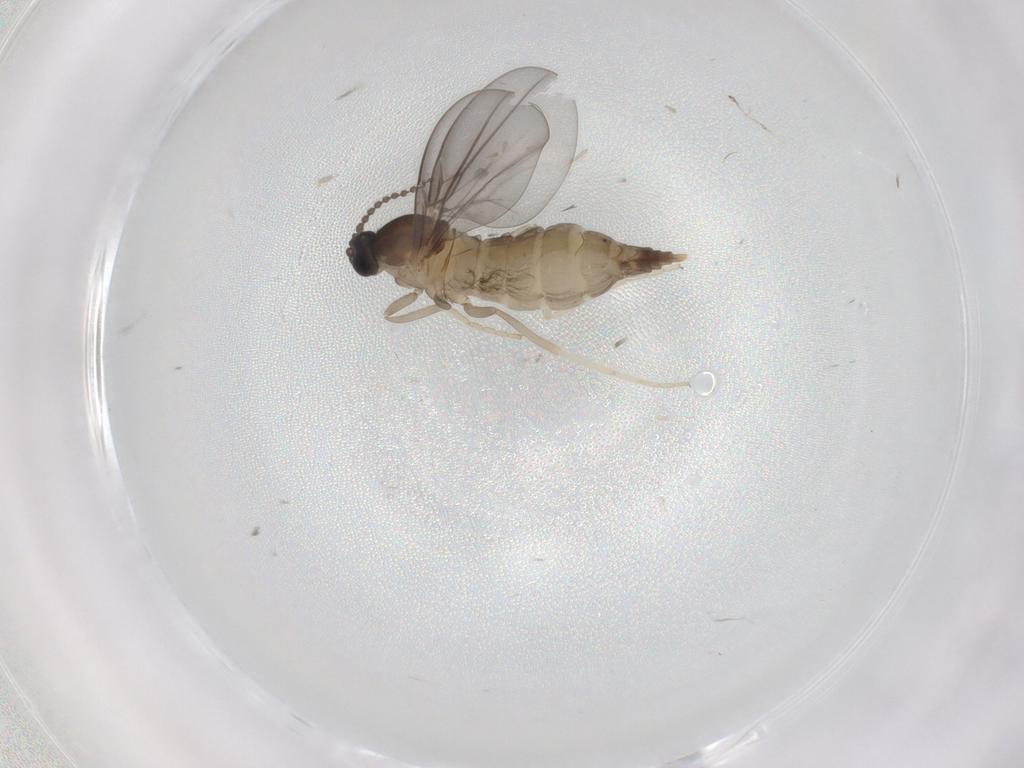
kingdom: Animalia
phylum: Arthropoda
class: Insecta
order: Diptera
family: Cecidomyiidae
